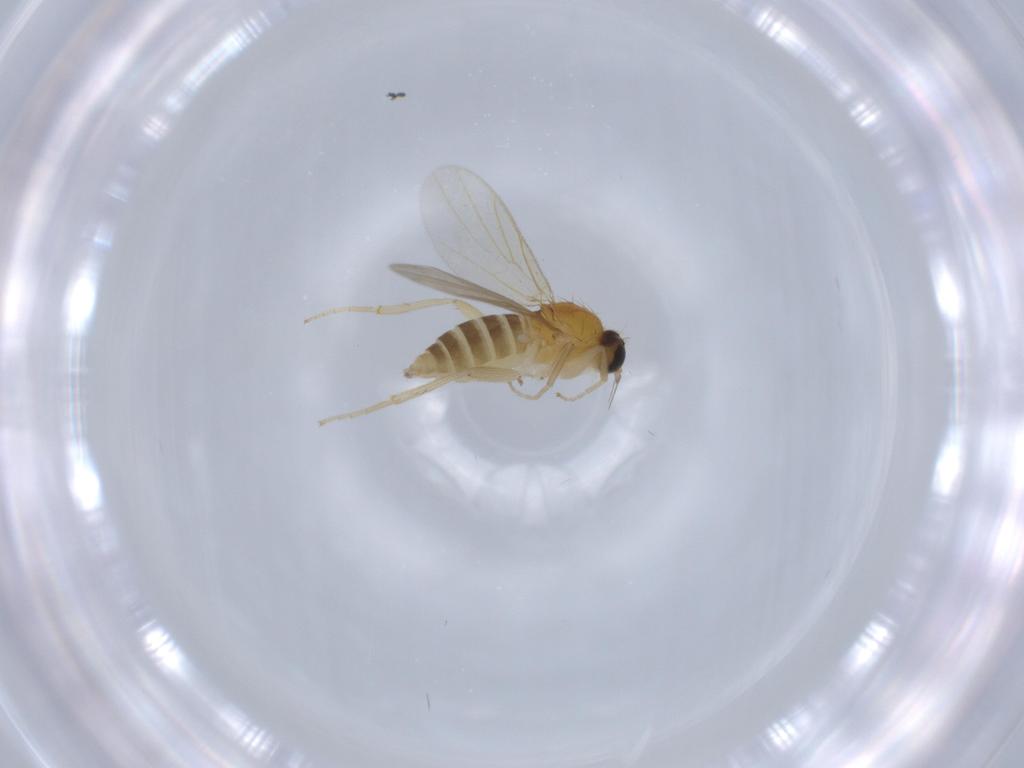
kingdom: Animalia
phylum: Arthropoda
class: Insecta
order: Diptera
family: Hybotidae
